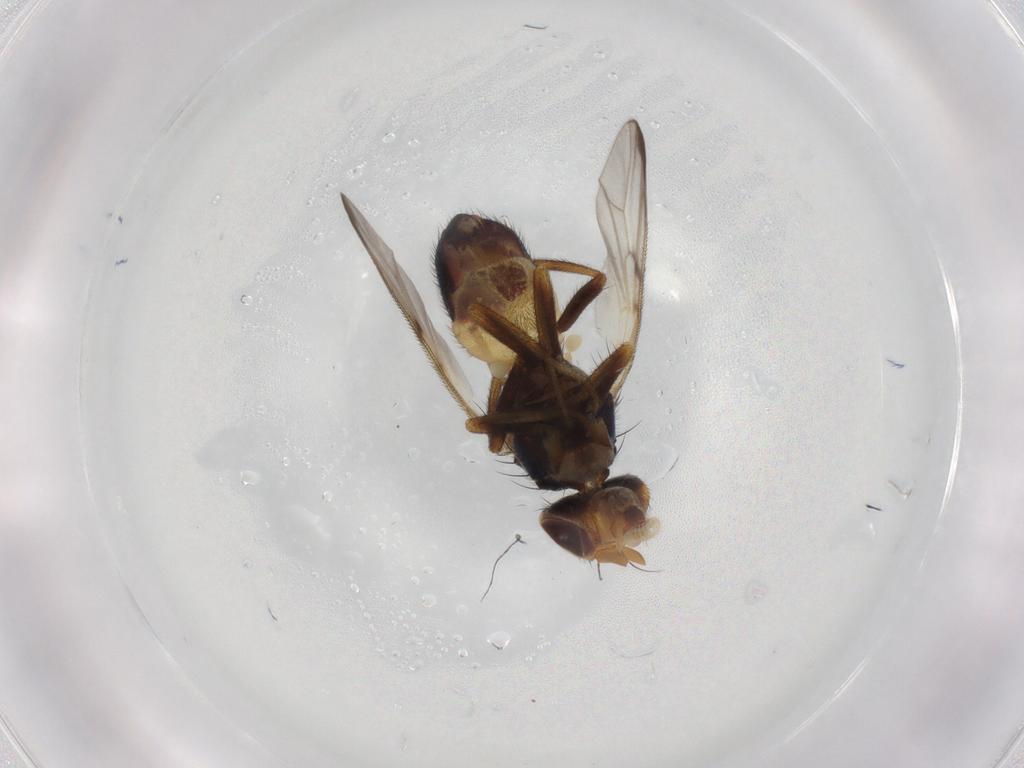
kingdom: Animalia
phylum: Arthropoda
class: Insecta
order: Diptera
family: Platystomatidae
